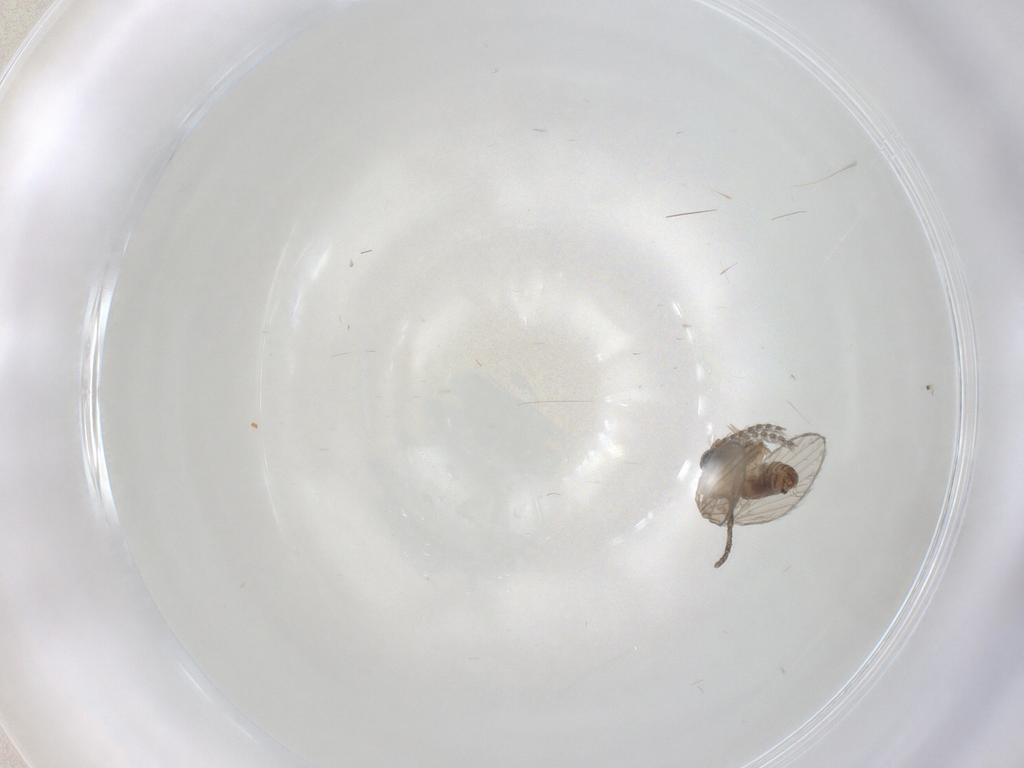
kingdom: Animalia
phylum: Arthropoda
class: Insecta
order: Diptera
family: Psychodidae
